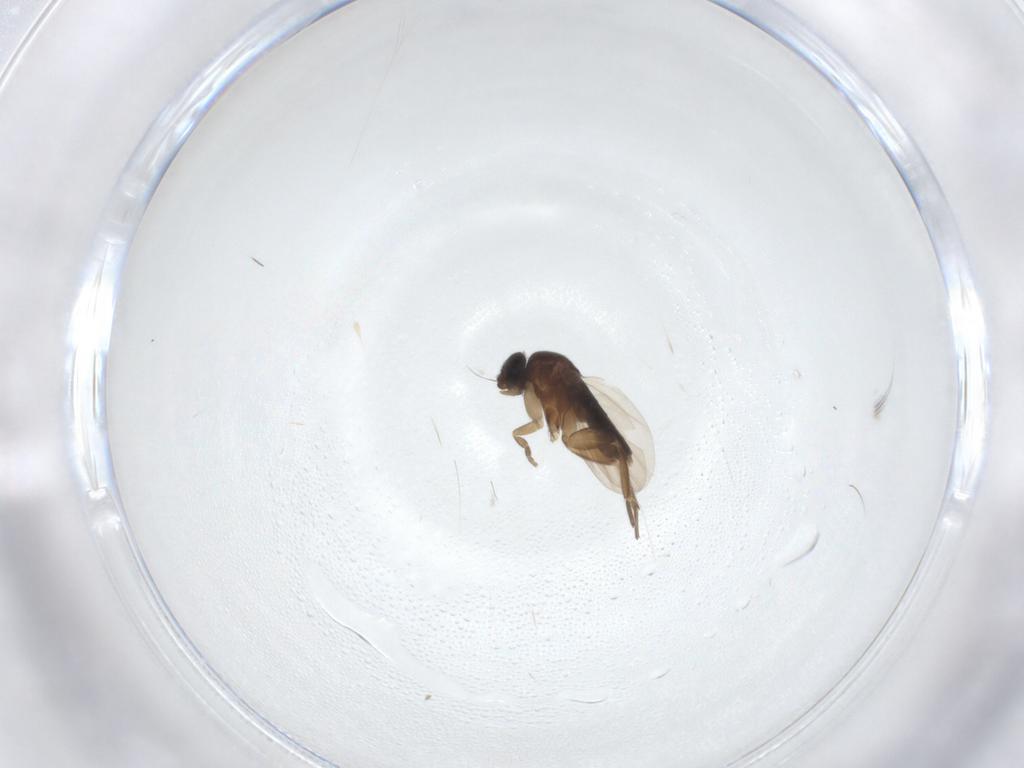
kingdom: Animalia
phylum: Arthropoda
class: Insecta
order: Diptera
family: Phoridae
